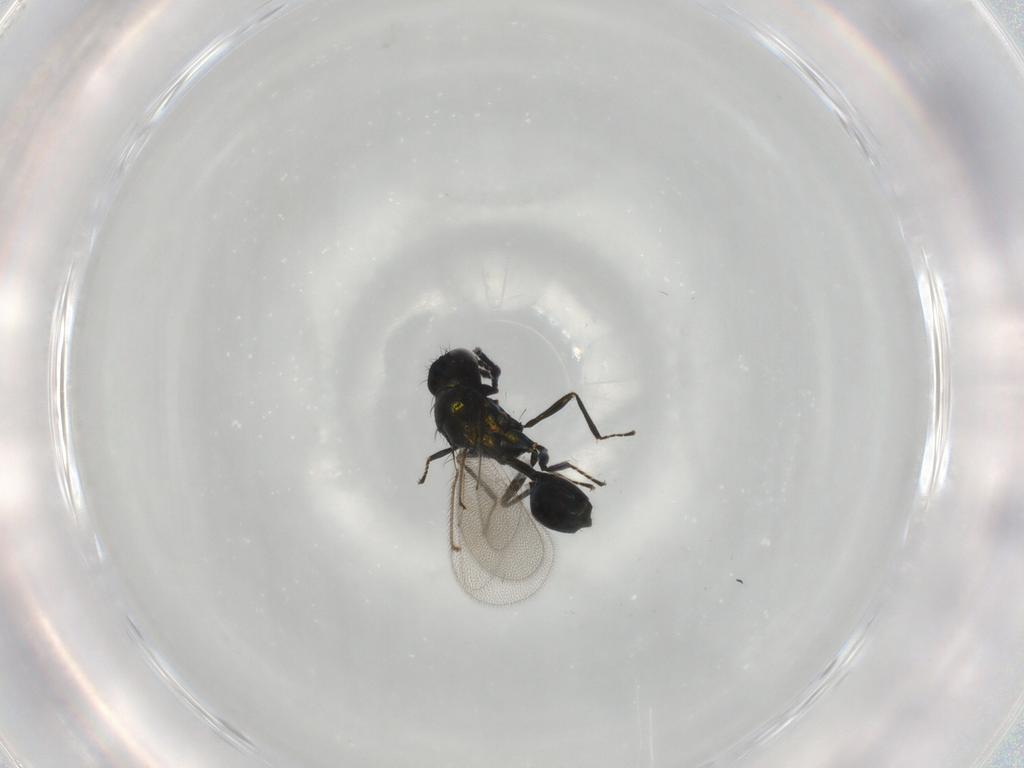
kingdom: Animalia
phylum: Arthropoda
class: Insecta
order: Hymenoptera
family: Eulophidae
